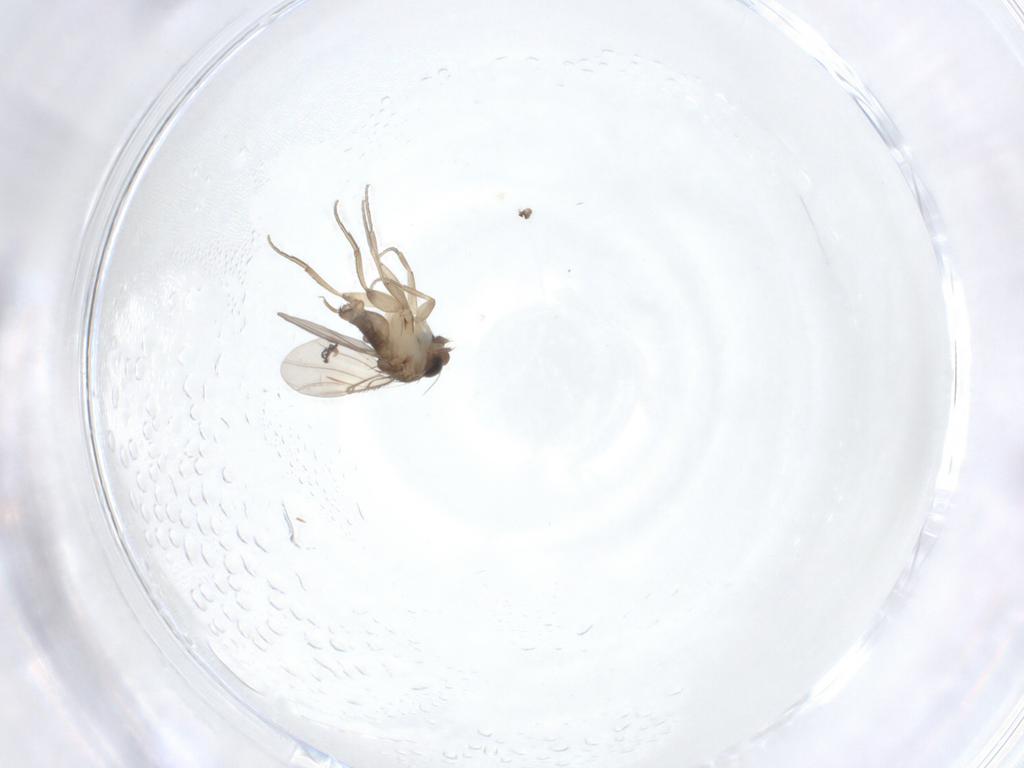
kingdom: Animalia
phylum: Arthropoda
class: Insecta
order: Diptera
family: Phoridae
